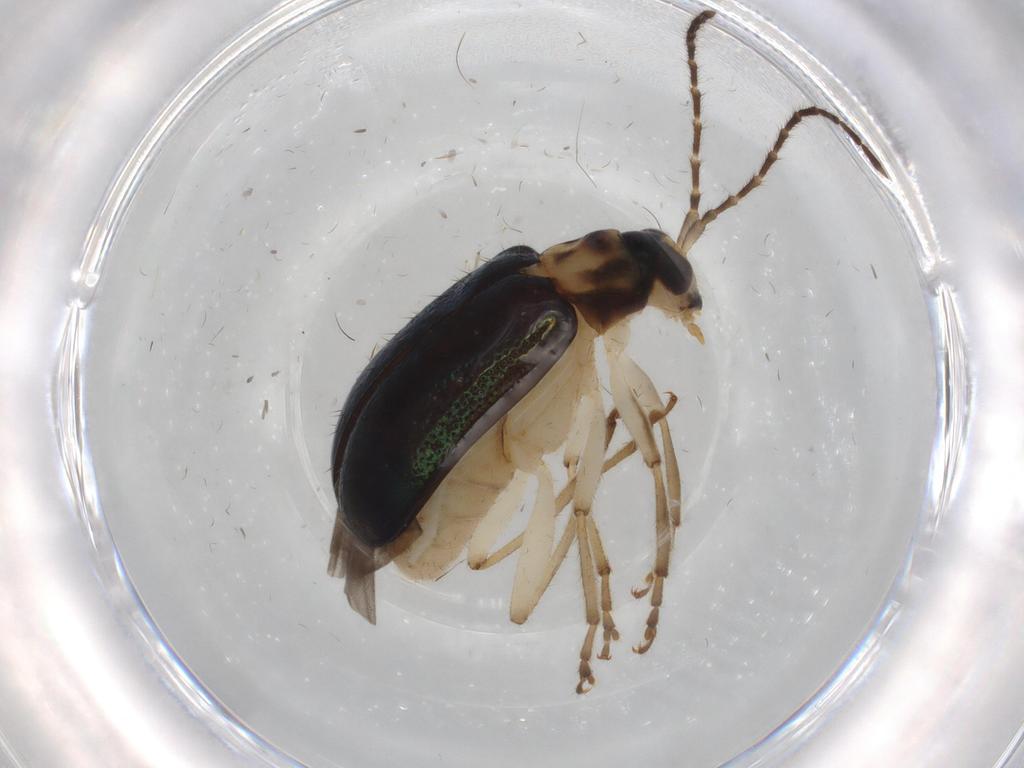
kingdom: Animalia
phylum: Arthropoda
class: Insecta
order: Coleoptera
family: Chrysomelidae
